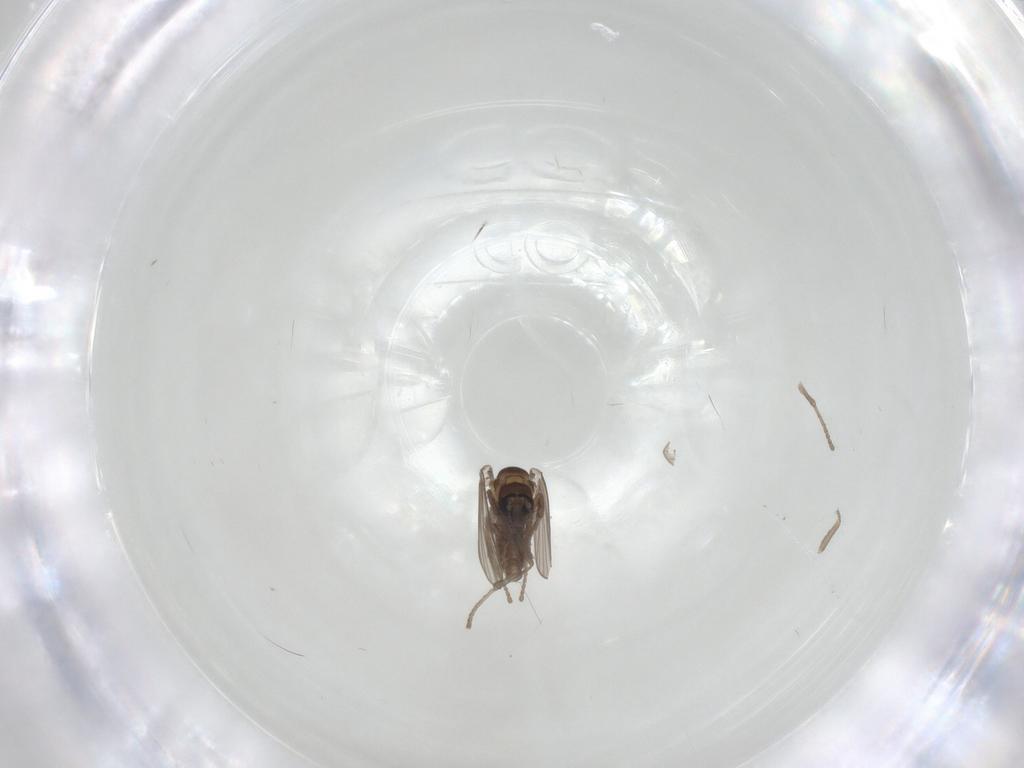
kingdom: Animalia
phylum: Arthropoda
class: Insecta
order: Diptera
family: Psychodidae
